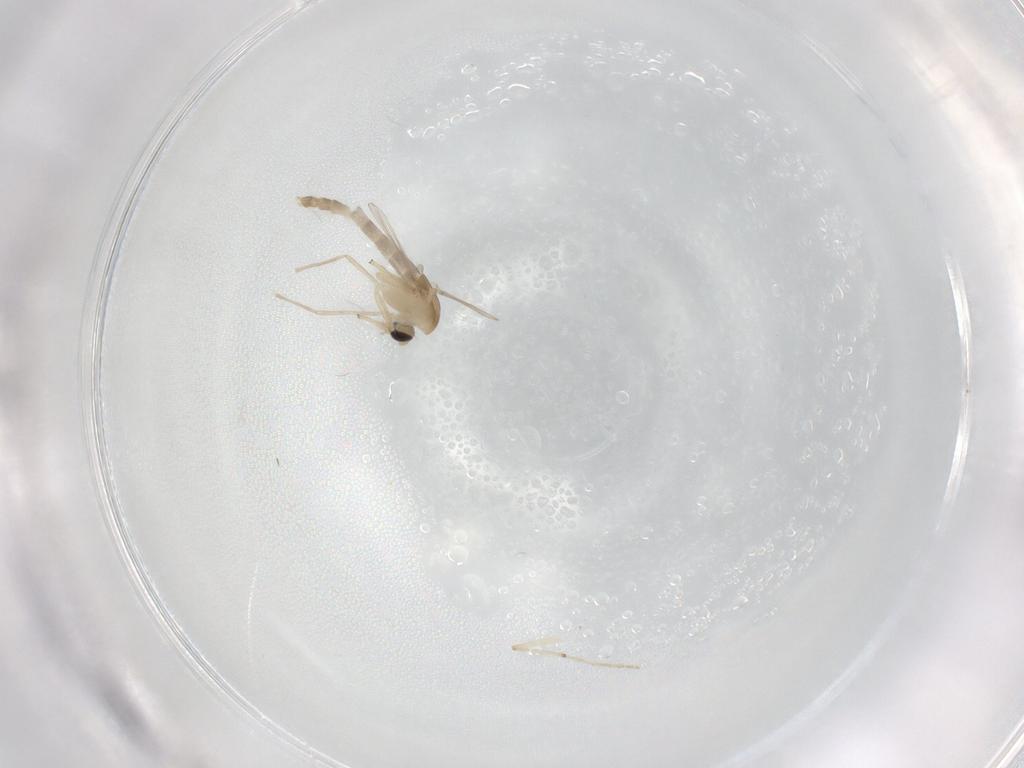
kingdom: Animalia
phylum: Arthropoda
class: Insecta
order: Diptera
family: Chironomidae
